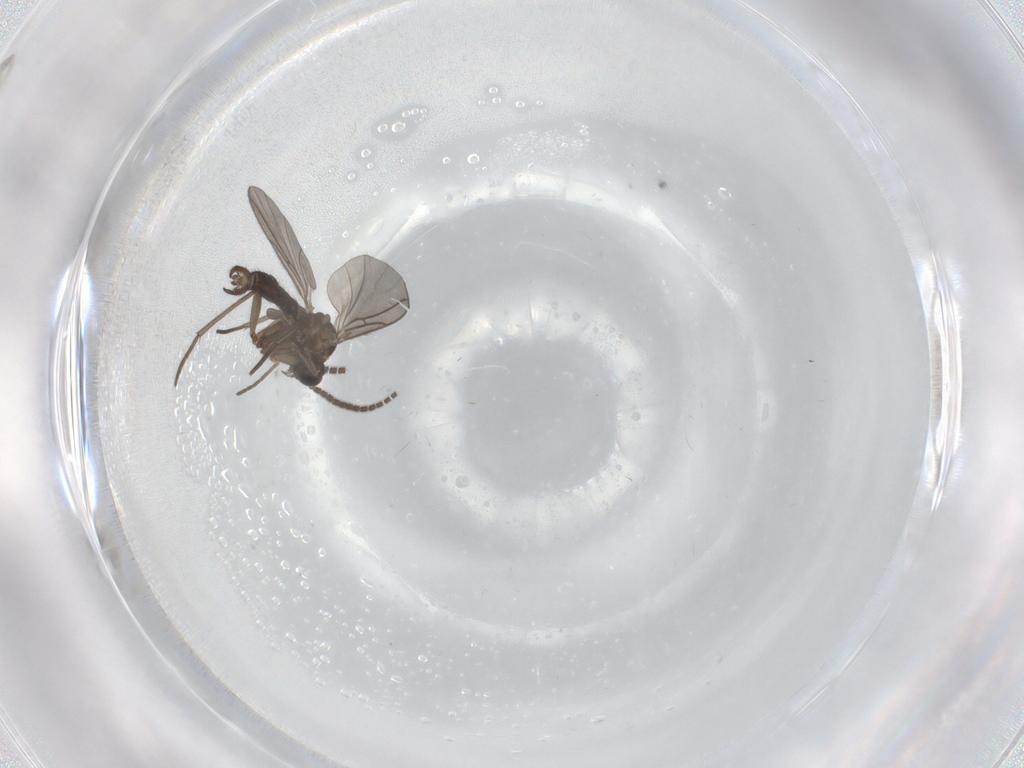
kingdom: Animalia
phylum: Arthropoda
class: Insecta
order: Diptera
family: Sciaridae
